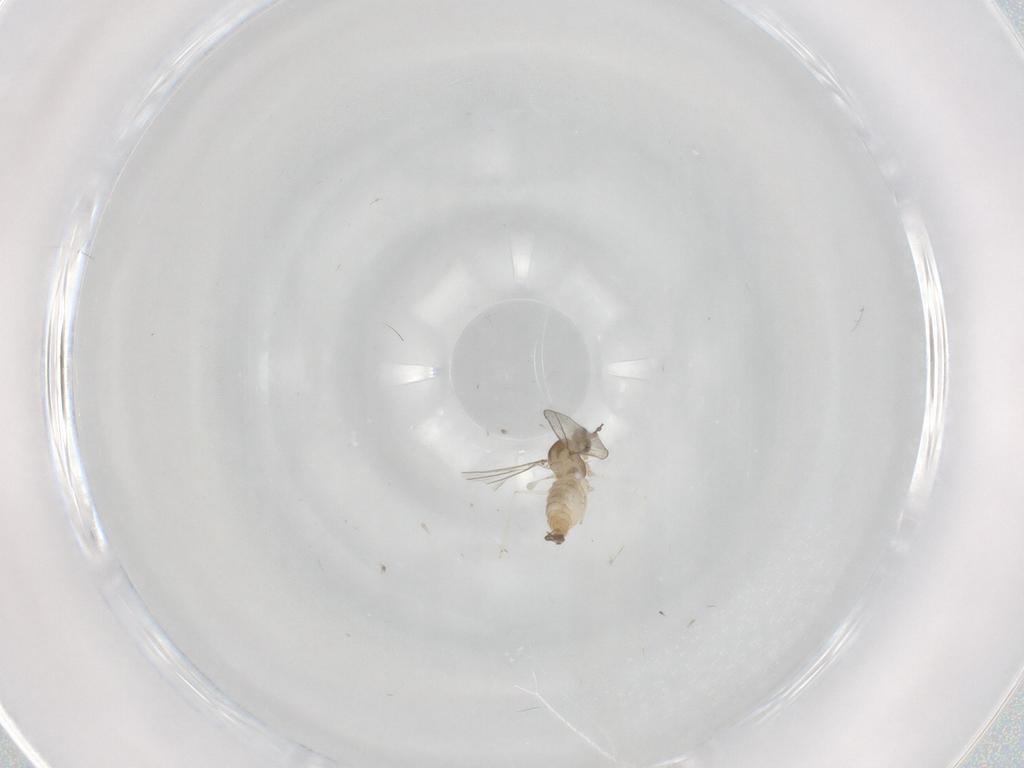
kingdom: Animalia
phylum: Arthropoda
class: Insecta
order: Diptera
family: Cecidomyiidae
